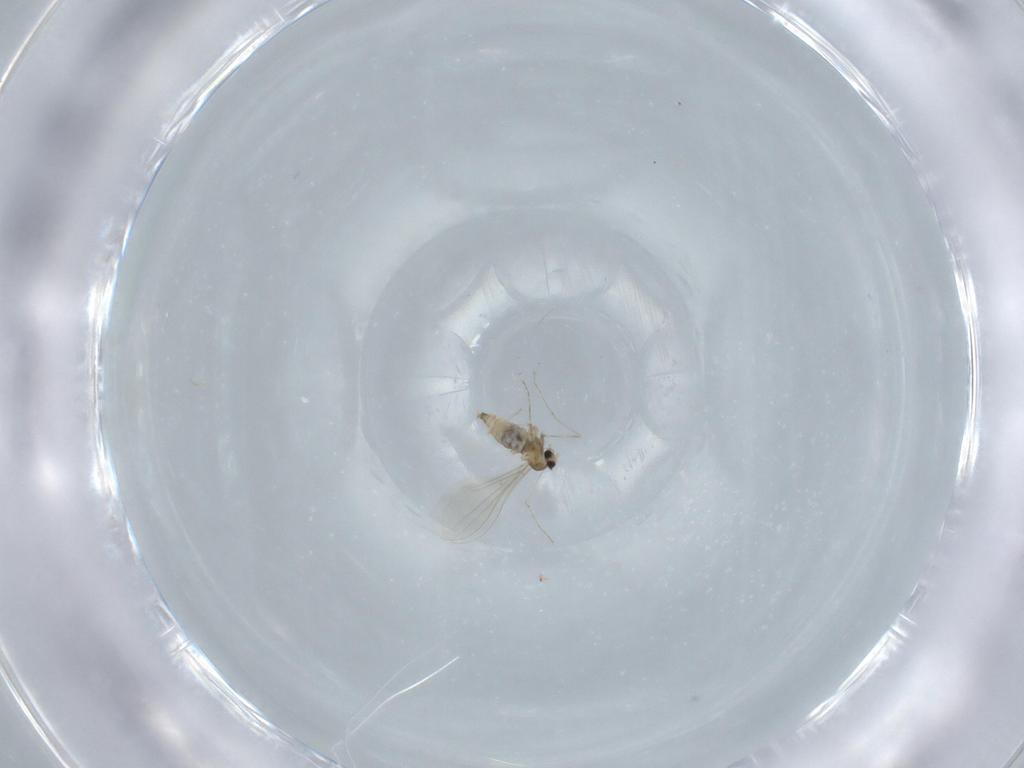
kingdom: Animalia
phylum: Arthropoda
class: Insecta
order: Diptera
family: Cecidomyiidae
